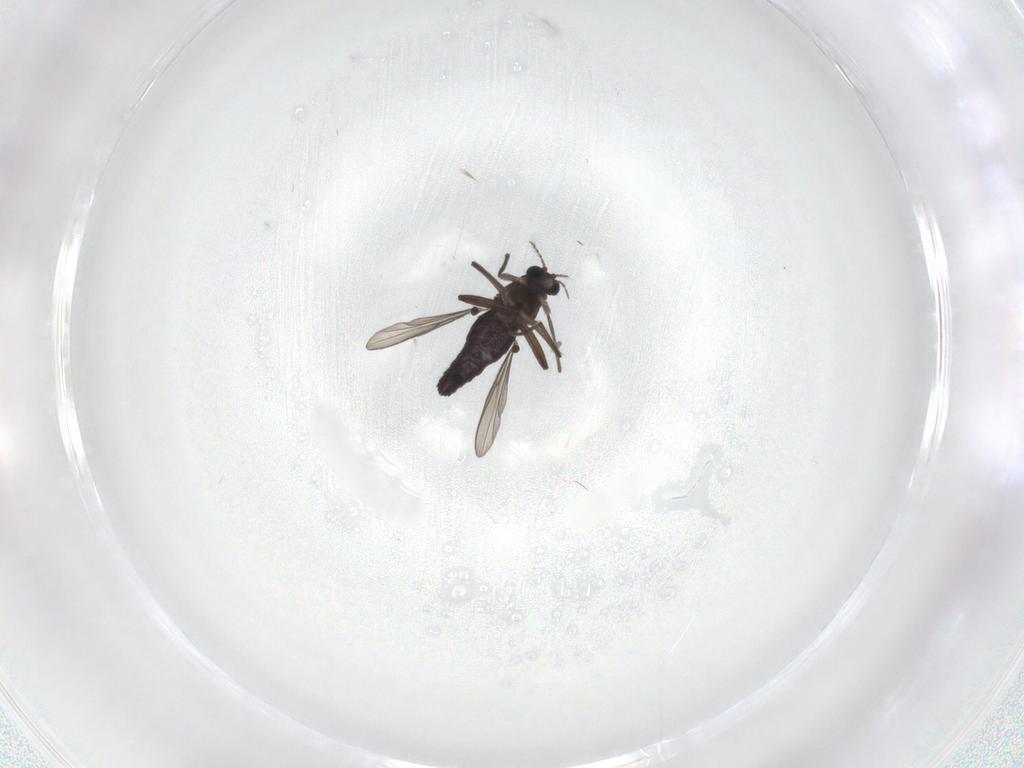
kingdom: Animalia
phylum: Arthropoda
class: Insecta
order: Diptera
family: Chironomidae
